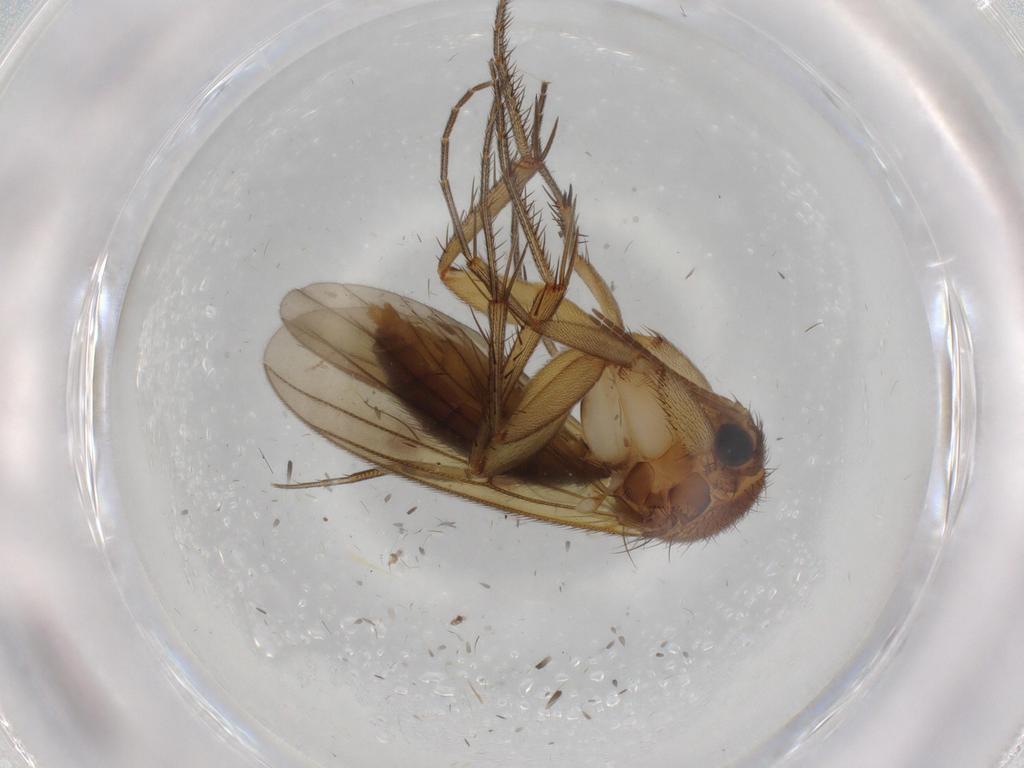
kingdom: Animalia
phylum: Arthropoda
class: Insecta
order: Diptera
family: Mycetophilidae
